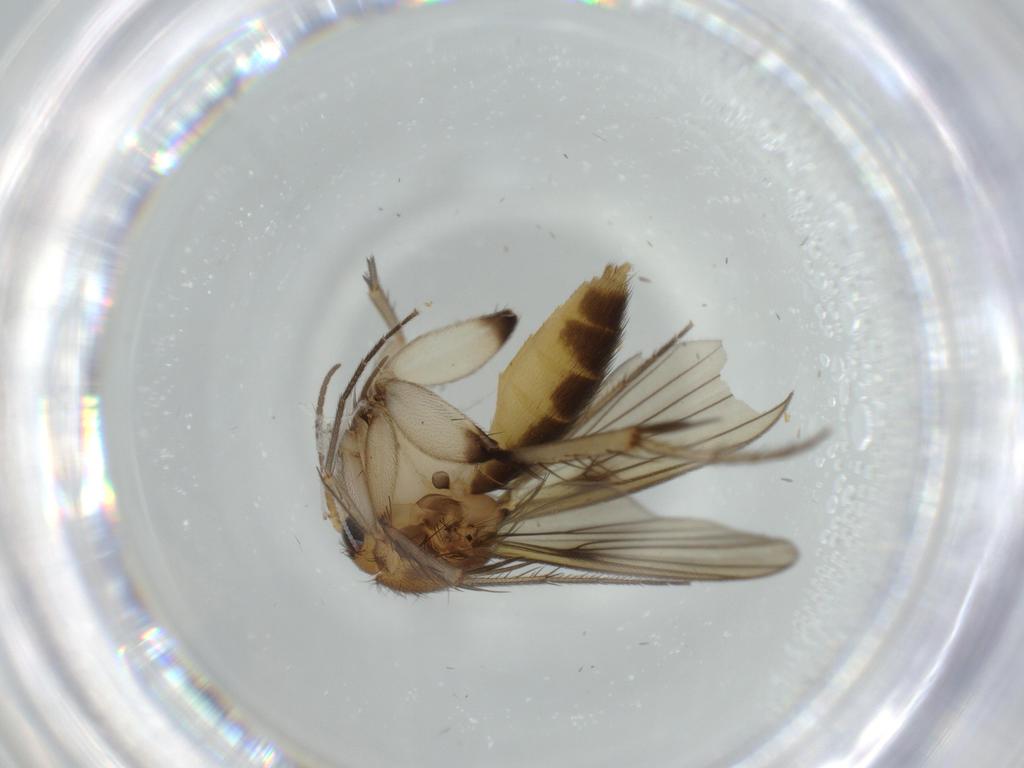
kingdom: Animalia
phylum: Arthropoda
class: Insecta
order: Diptera
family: Mycetophilidae
